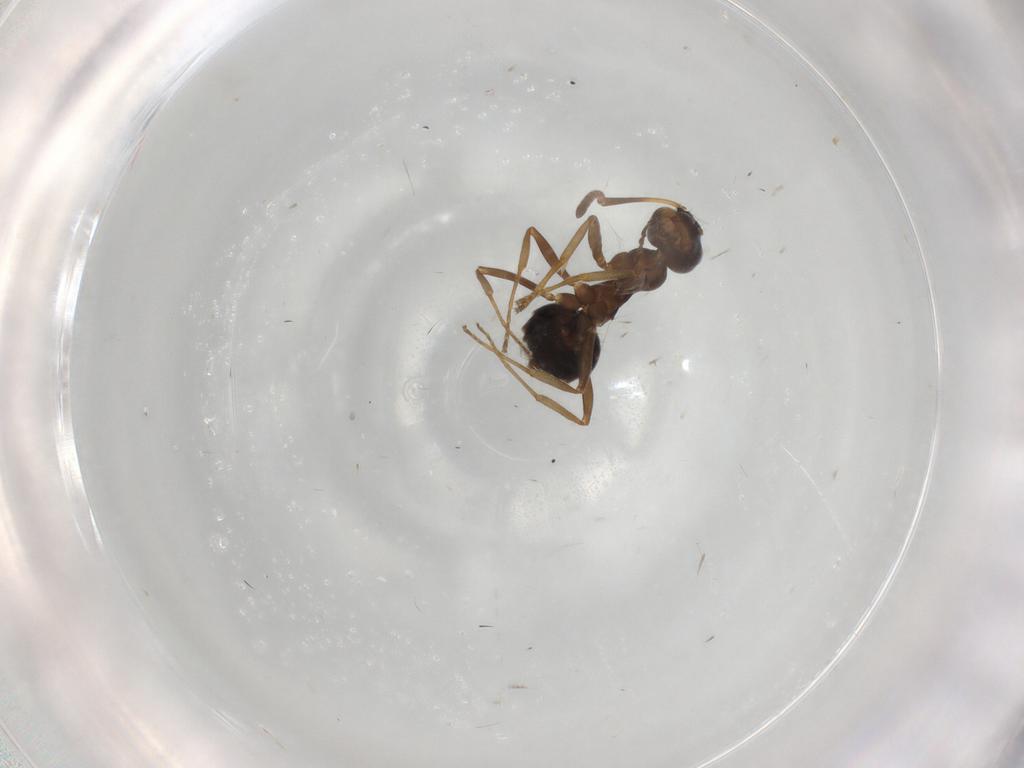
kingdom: Animalia
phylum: Arthropoda
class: Insecta
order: Hymenoptera
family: Formicidae
